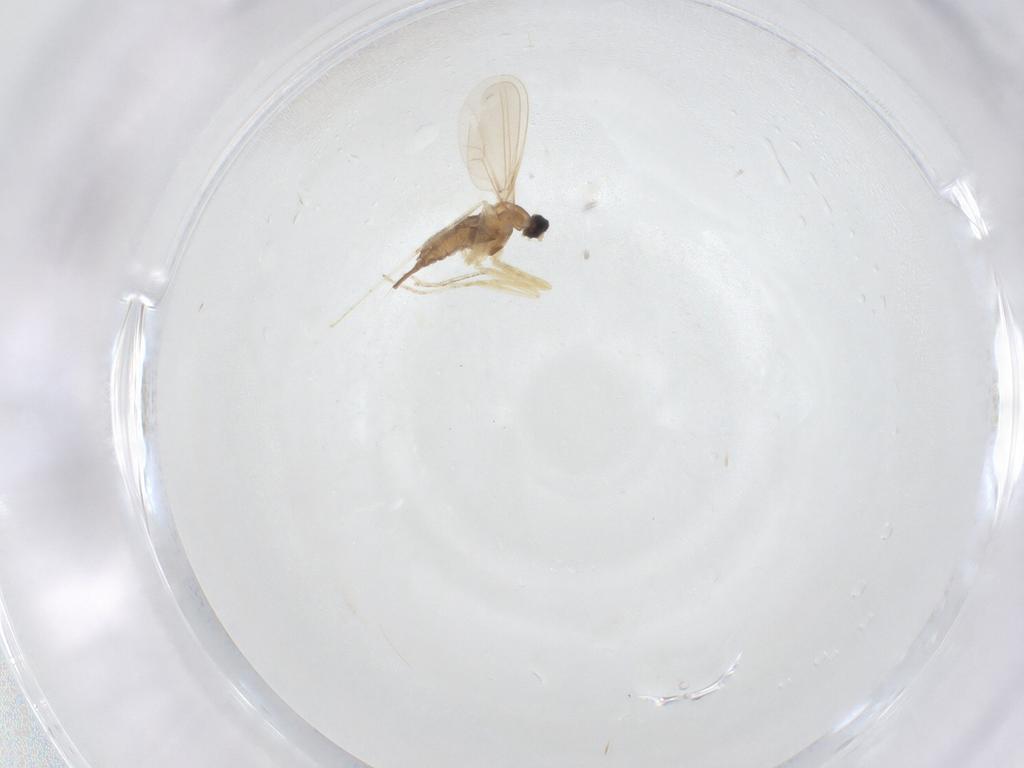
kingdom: Animalia
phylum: Arthropoda
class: Insecta
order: Diptera
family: Cecidomyiidae
